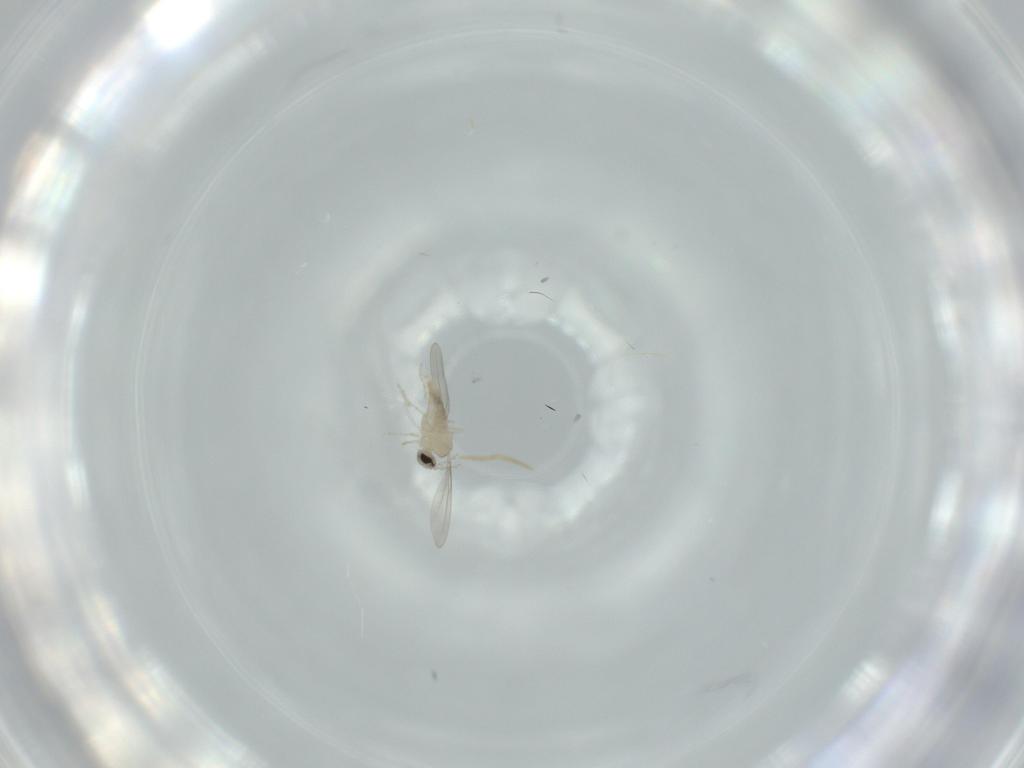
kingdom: Animalia
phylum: Arthropoda
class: Insecta
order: Diptera
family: Cecidomyiidae
